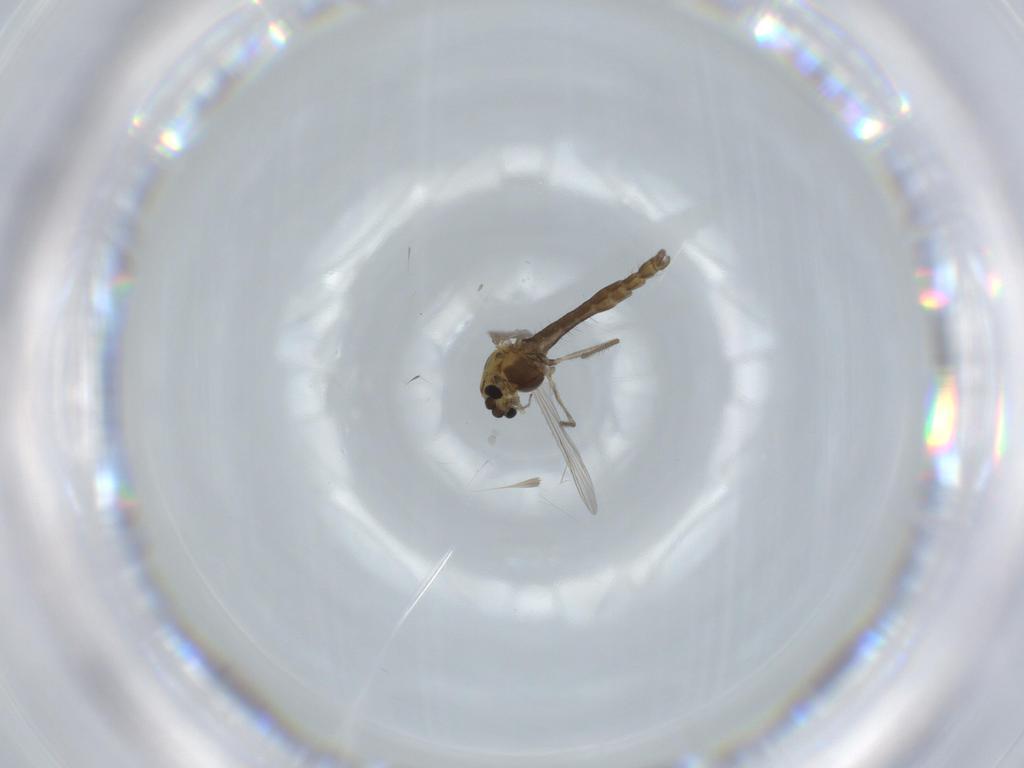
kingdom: Animalia
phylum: Arthropoda
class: Insecta
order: Diptera
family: Chironomidae
